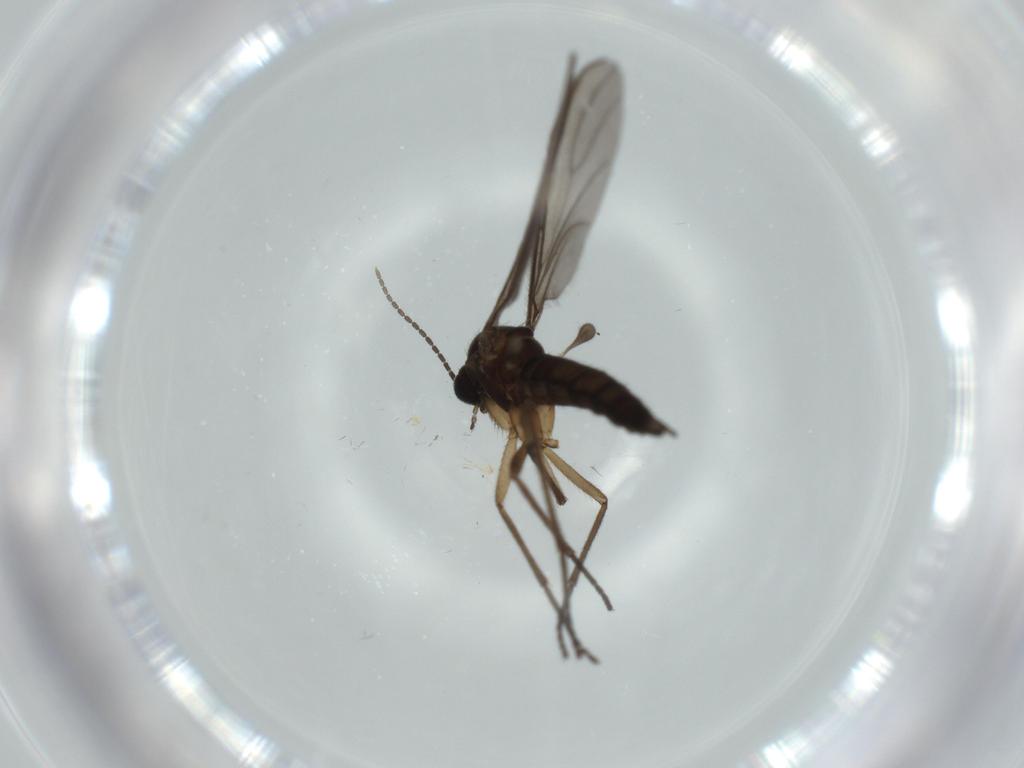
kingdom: Animalia
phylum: Arthropoda
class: Insecta
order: Diptera
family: Sciaridae
